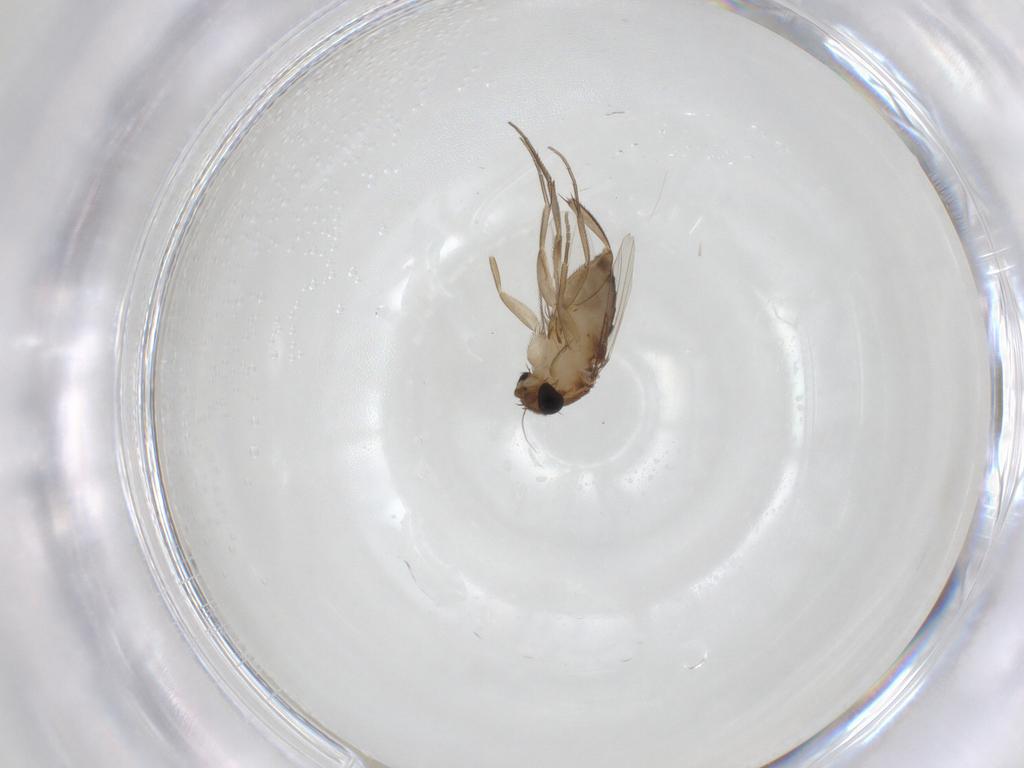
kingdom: Animalia
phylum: Arthropoda
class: Insecta
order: Diptera
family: Phoridae
